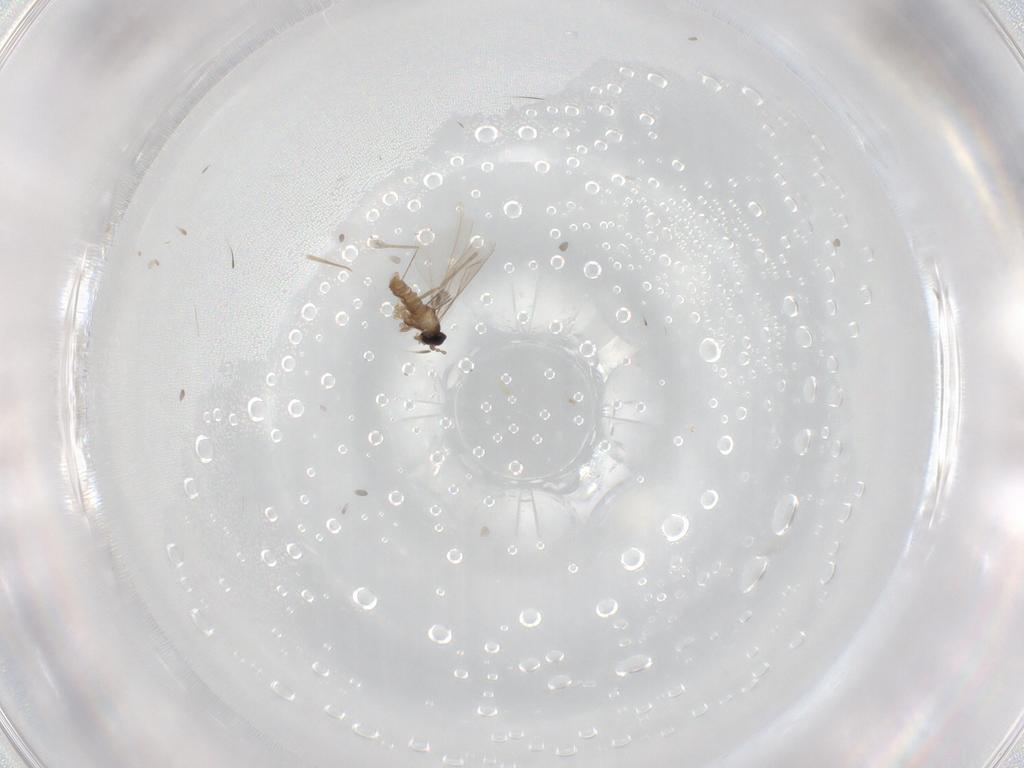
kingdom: Animalia
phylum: Arthropoda
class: Insecta
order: Diptera
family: Cecidomyiidae
